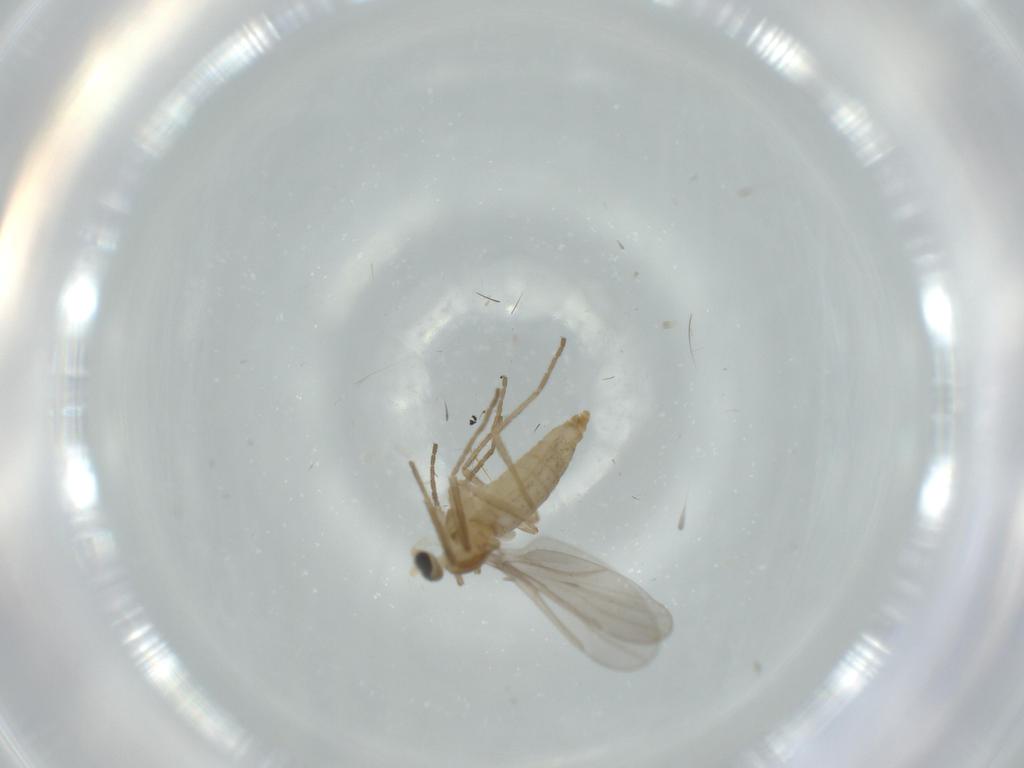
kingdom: Animalia
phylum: Arthropoda
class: Insecta
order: Diptera
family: Cecidomyiidae
